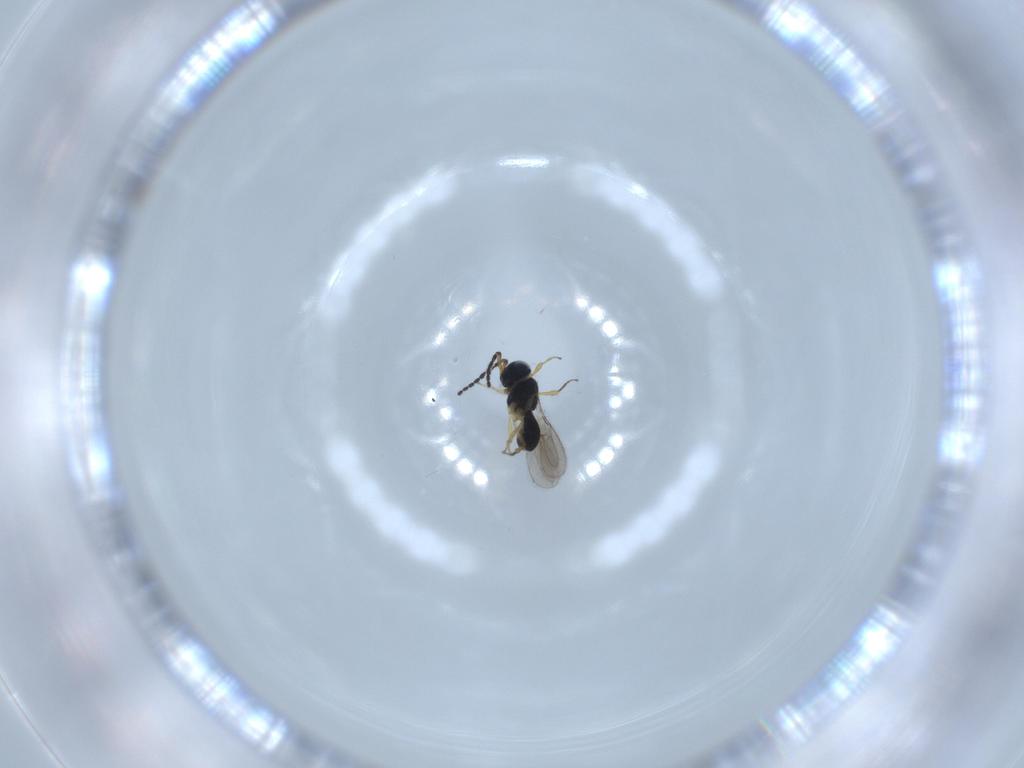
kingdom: Animalia
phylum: Arthropoda
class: Insecta
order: Hymenoptera
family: Scelionidae
